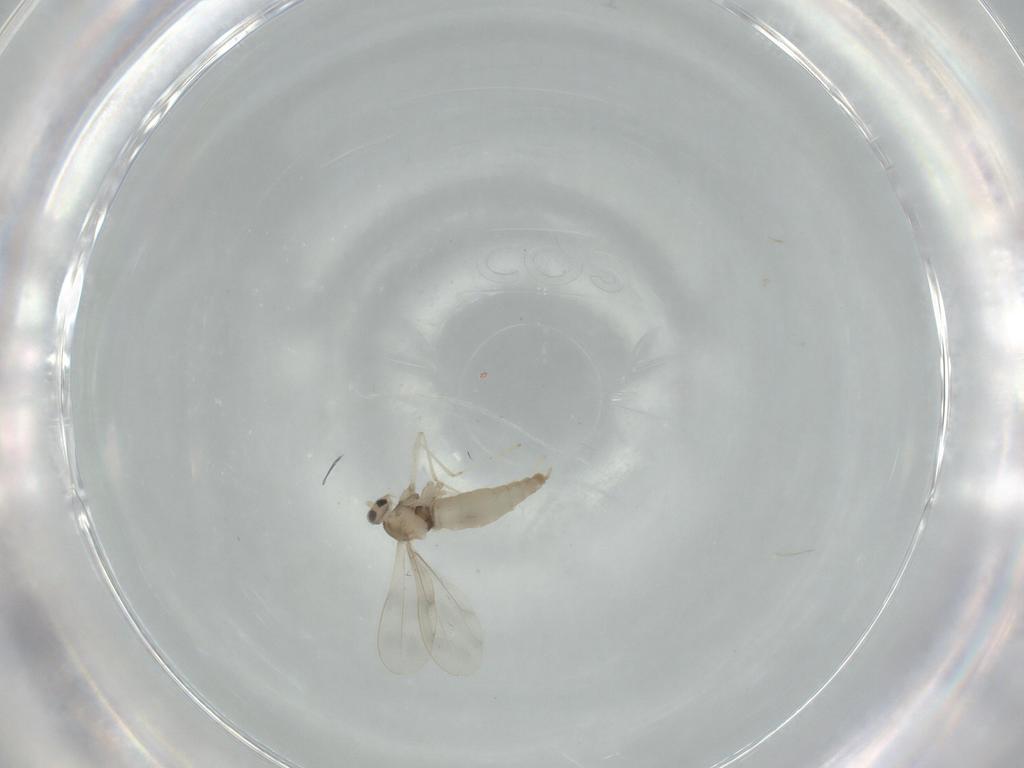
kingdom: Animalia
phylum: Arthropoda
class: Insecta
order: Diptera
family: Cecidomyiidae
